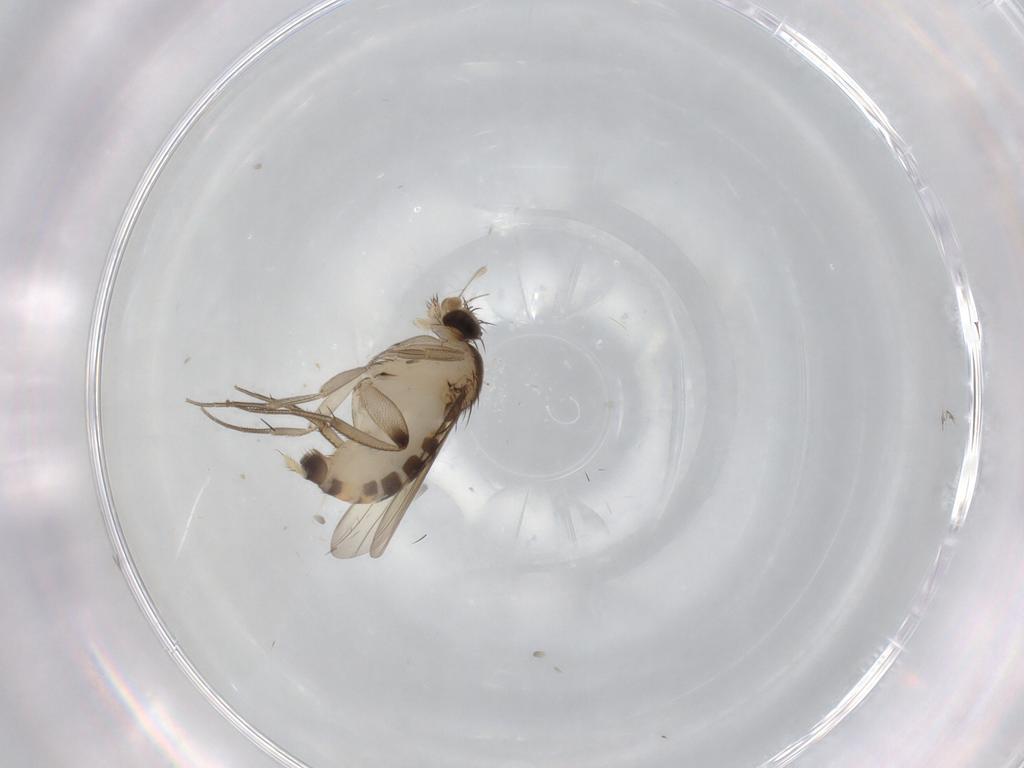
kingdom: Animalia
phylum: Arthropoda
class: Insecta
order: Diptera
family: Phoridae
